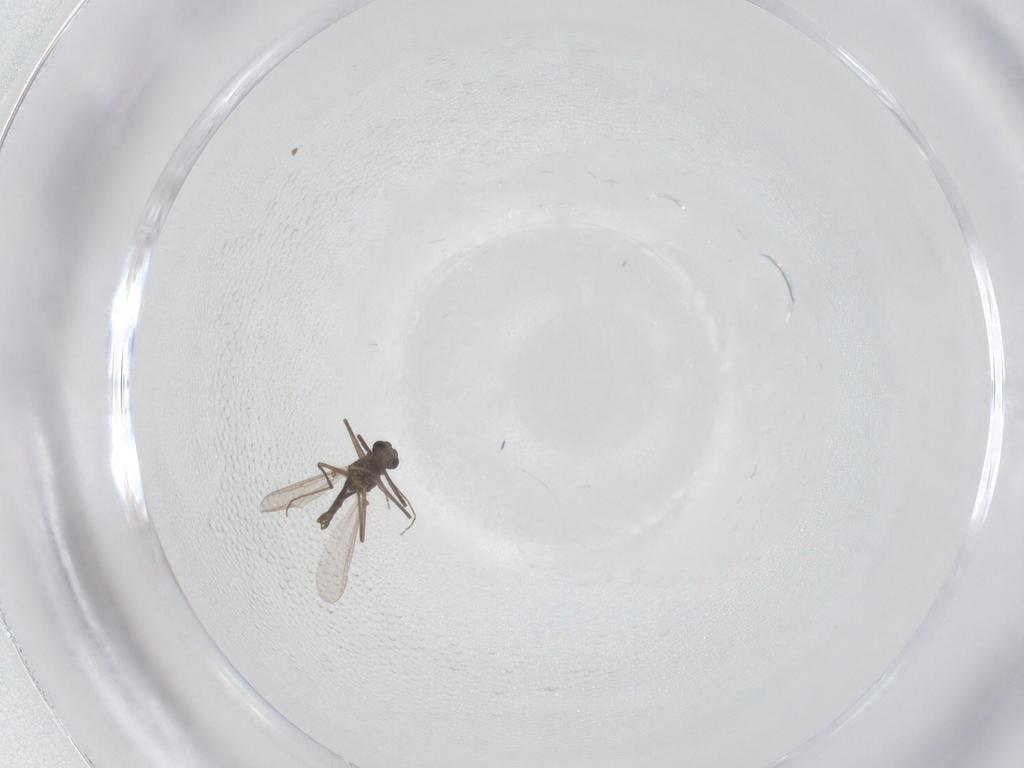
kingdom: Animalia
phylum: Arthropoda
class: Insecta
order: Diptera
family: Chironomidae
